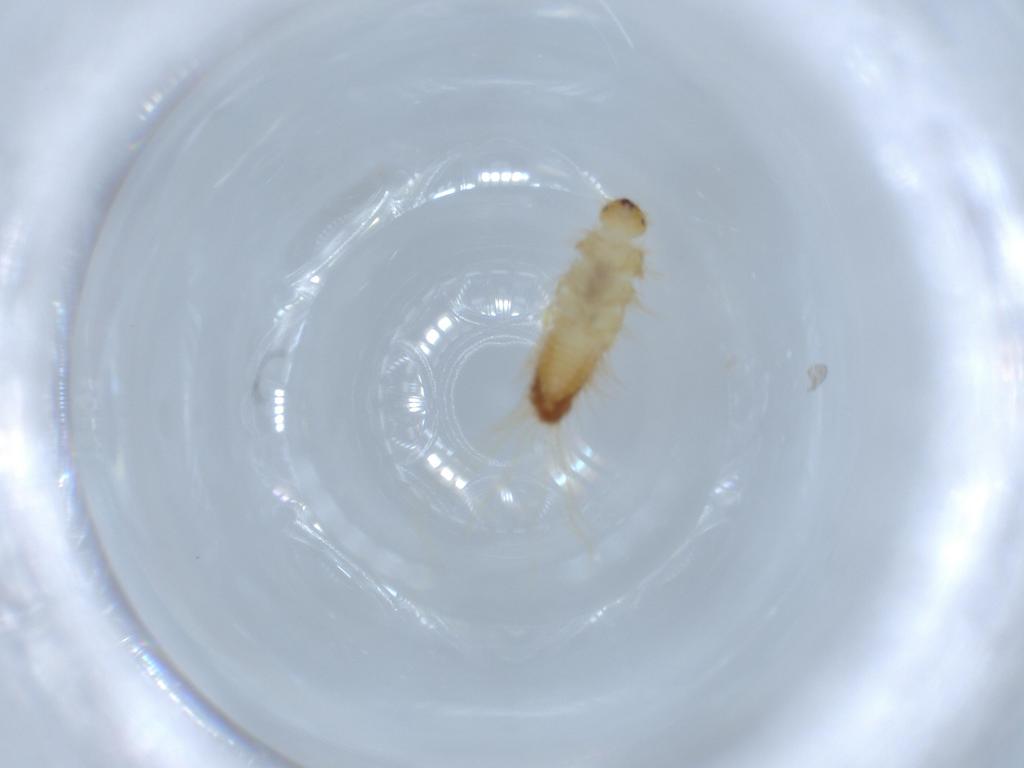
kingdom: Animalia
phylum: Arthropoda
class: Insecta
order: Coleoptera
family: Dermestidae
